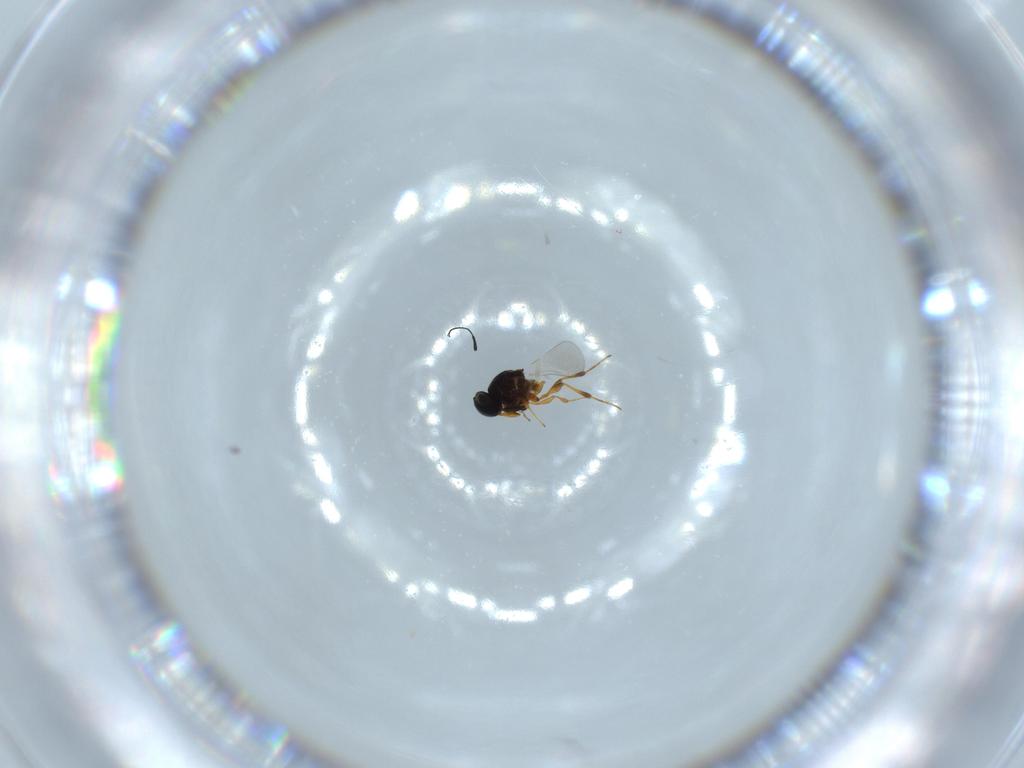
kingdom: Animalia
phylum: Arthropoda
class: Insecta
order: Hymenoptera
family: Platygastridae
